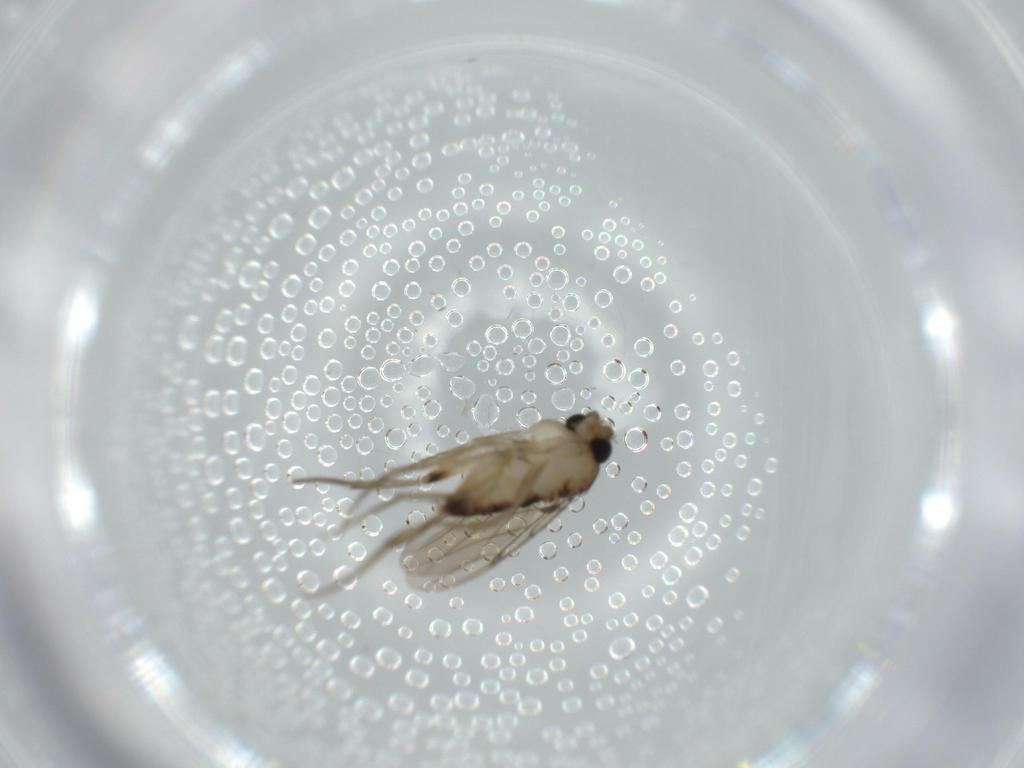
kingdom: Animalia
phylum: Arthropoda
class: Insecta
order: Diptera
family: Phoridae
